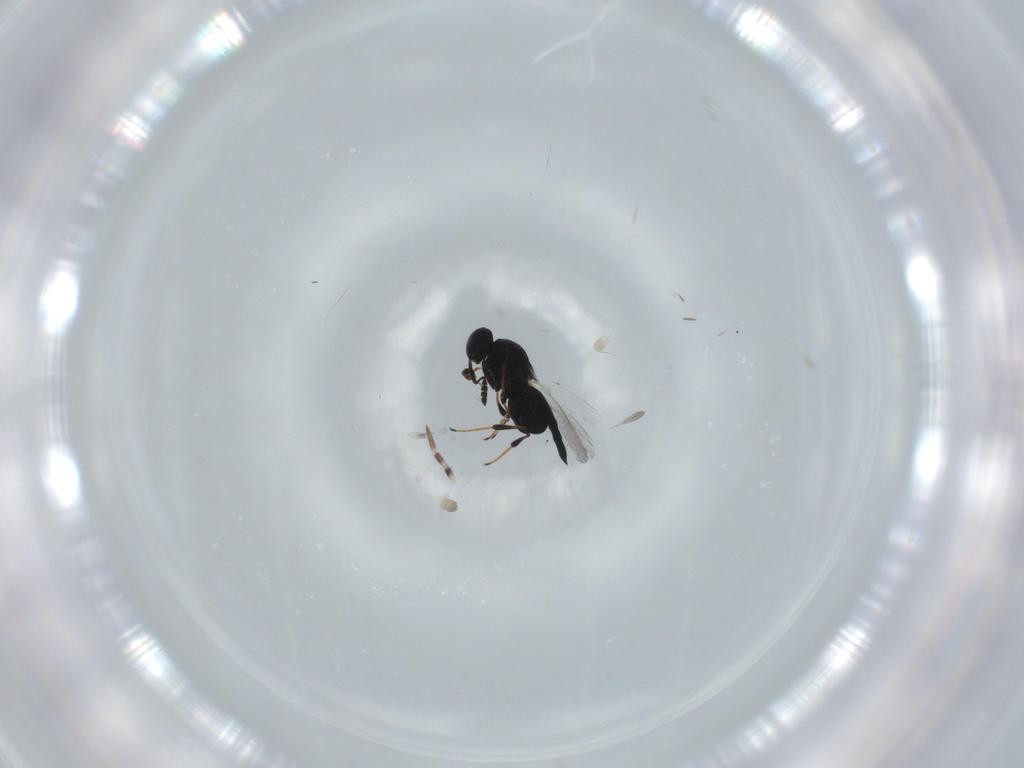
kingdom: Animalia
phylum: Arthropoda
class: Insecta
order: Hymenoptera
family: Platygastridae
